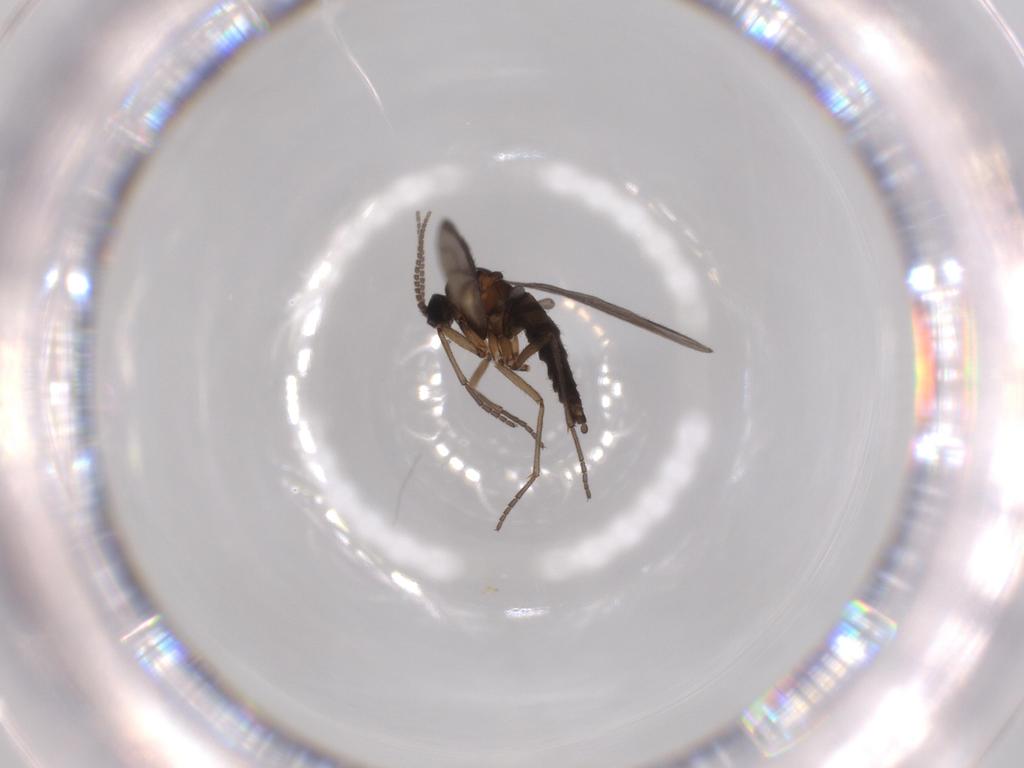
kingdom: Animalia
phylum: Arthropoda
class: Insecta
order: Diptera
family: Sciaridae
